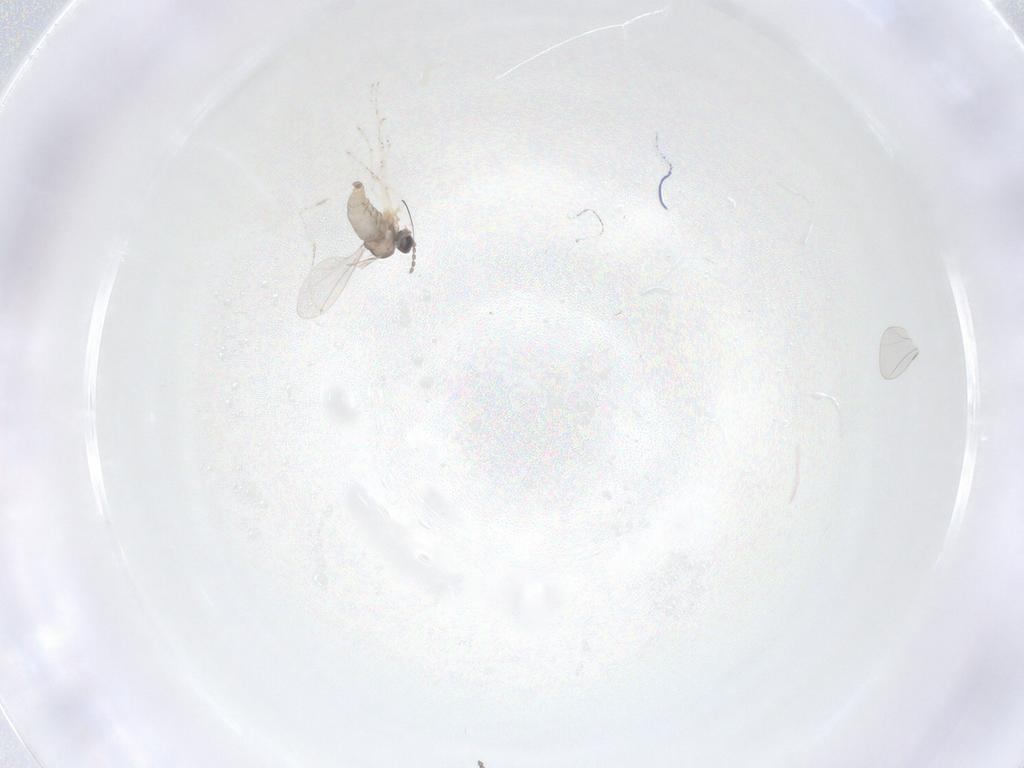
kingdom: Animalia
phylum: Arthropoda
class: Insecta
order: Diptera
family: Cecidomyiidae
